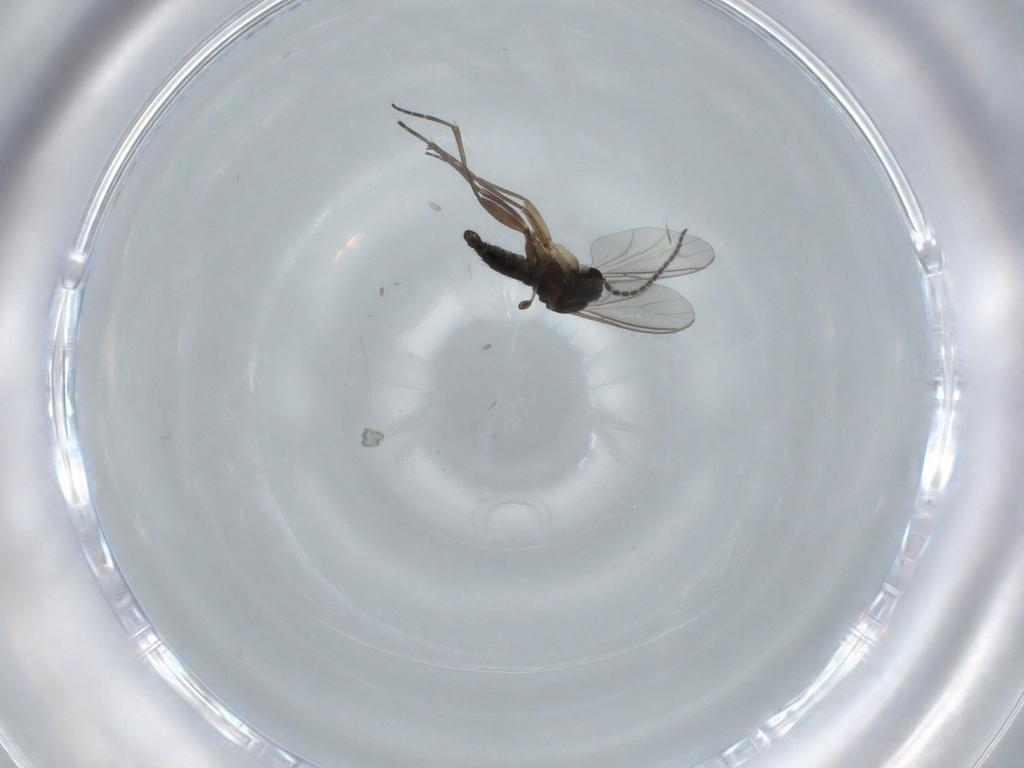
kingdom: Animalia
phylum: Arthropoda
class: Insecta
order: Diptera
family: Sciaridae
